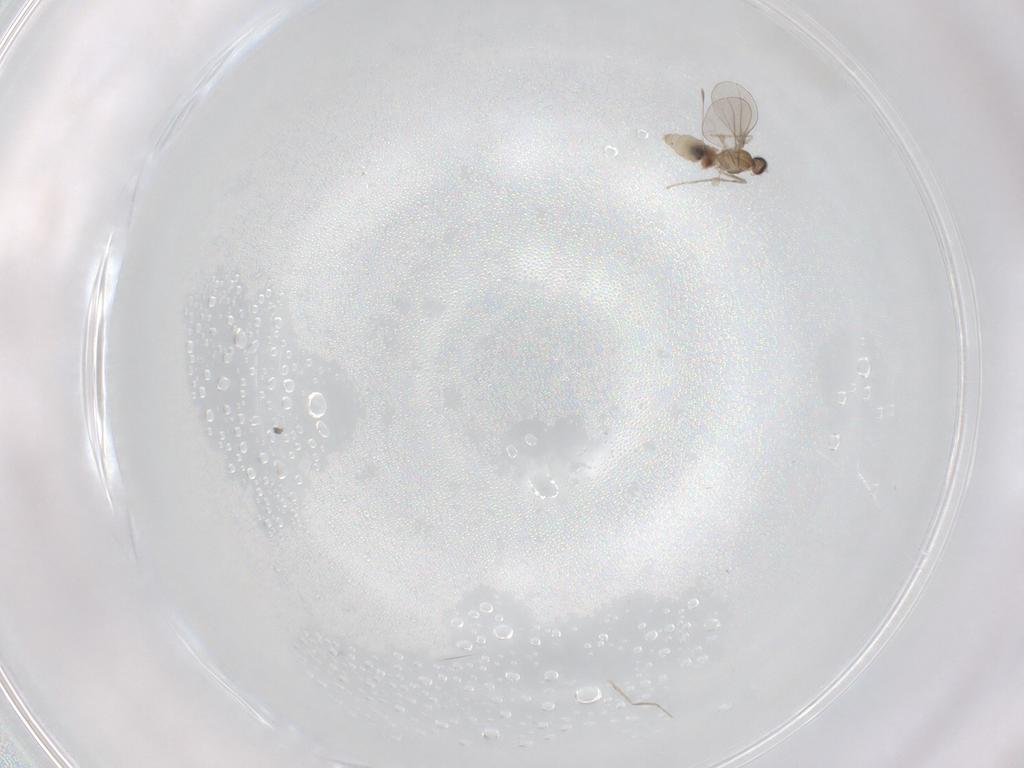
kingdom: Animalia
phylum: Arthropoda
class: Insecta
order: Diptera
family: Cecidomyiidae
